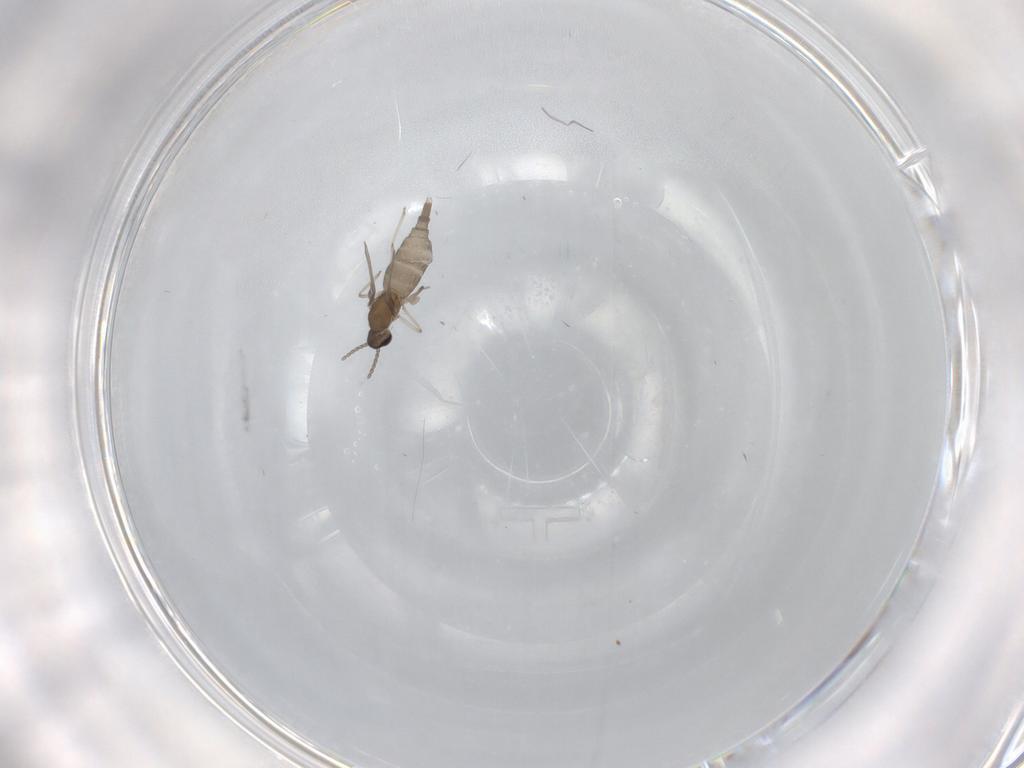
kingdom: Animalia
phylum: Arthropoda
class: Insecta
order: Diptera
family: Cecidomyiidae
